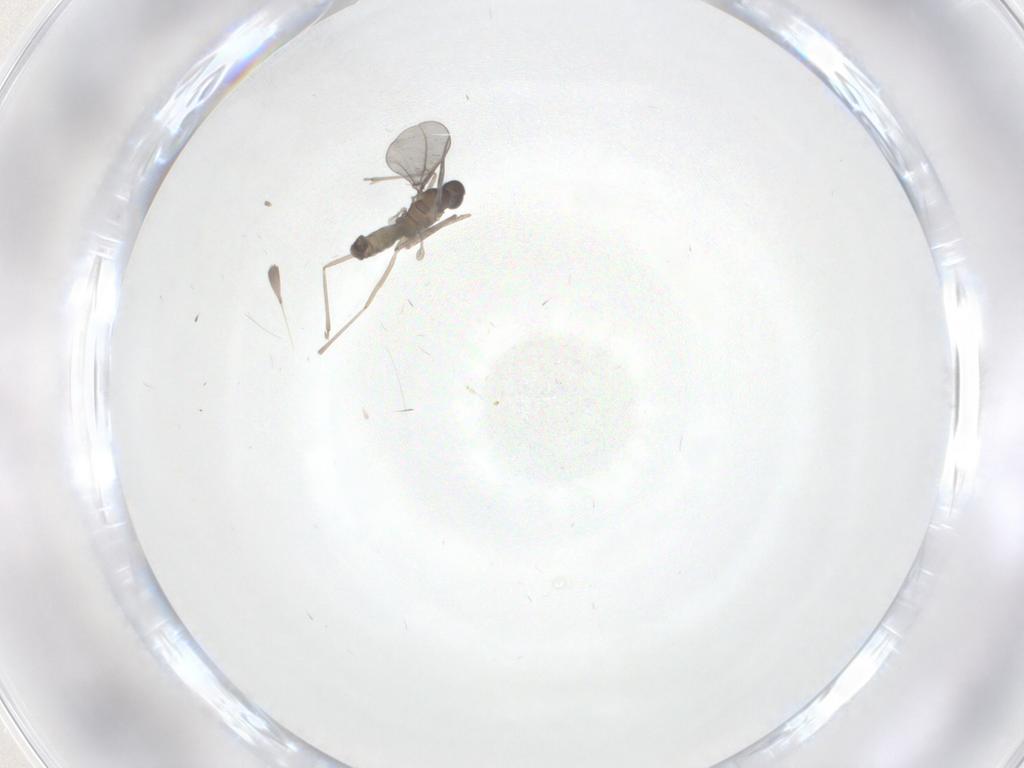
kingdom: Animalia
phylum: Arthropoda
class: Insecta
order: Diptera
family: Cecidomyiidae
